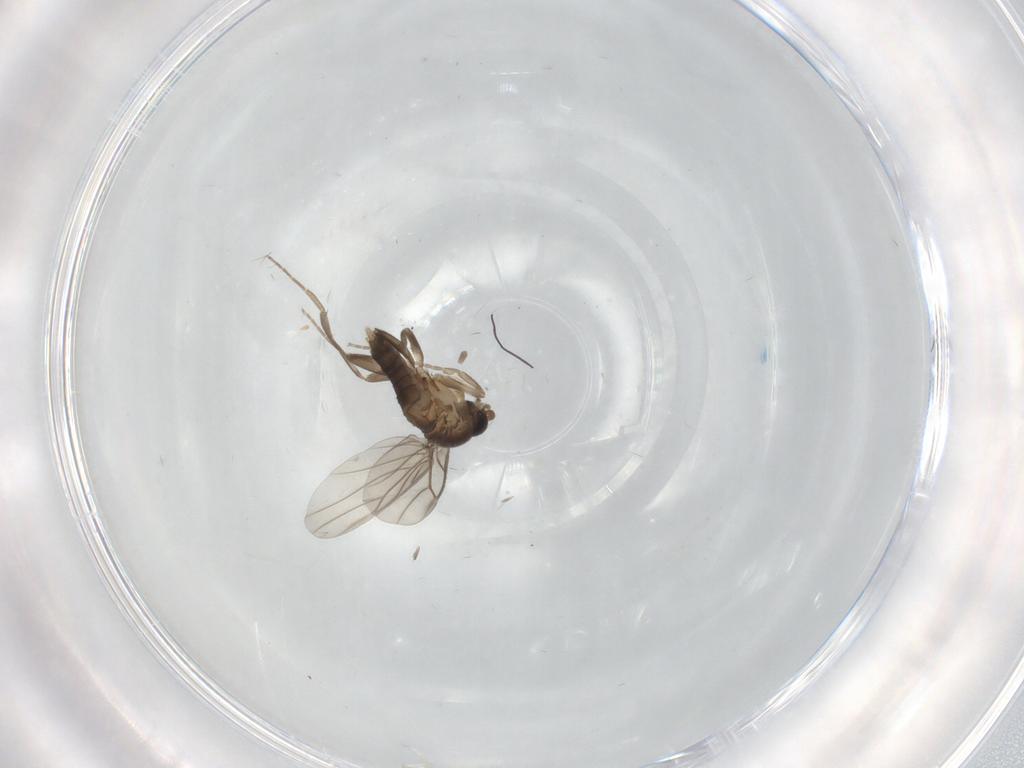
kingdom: Animalia
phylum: Arthropoda
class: Insecta
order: Diptera
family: Phoridae
